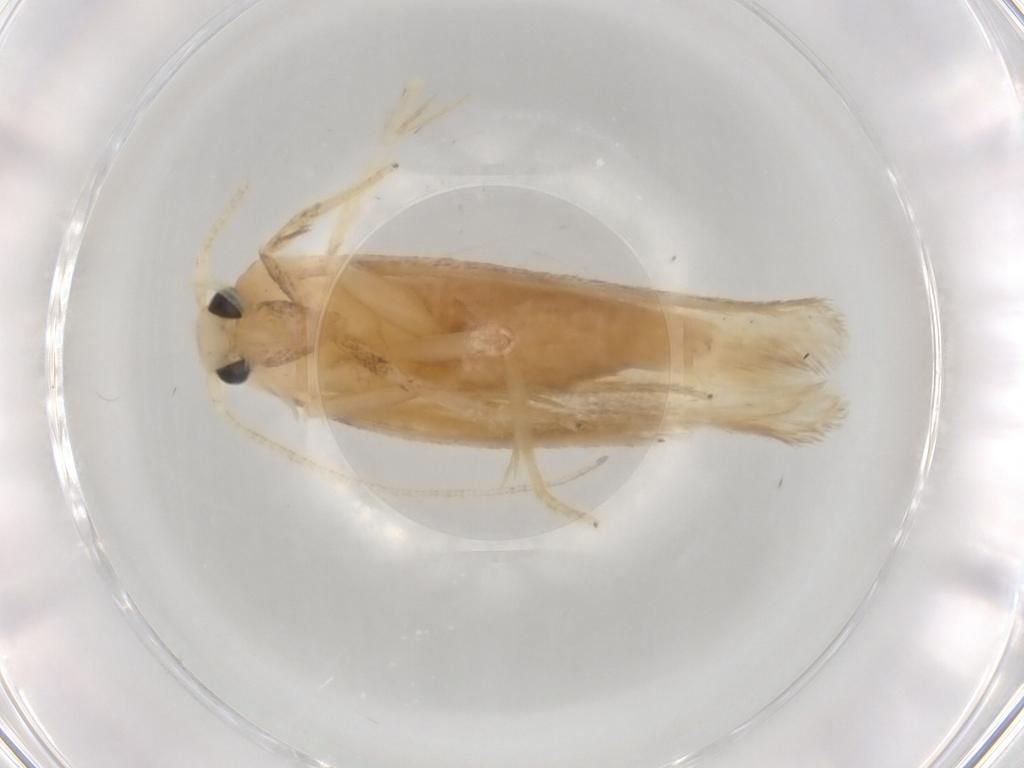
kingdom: Animalia
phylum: Arthropoda
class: Insecta
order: Lepidoptera
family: Geometridae
